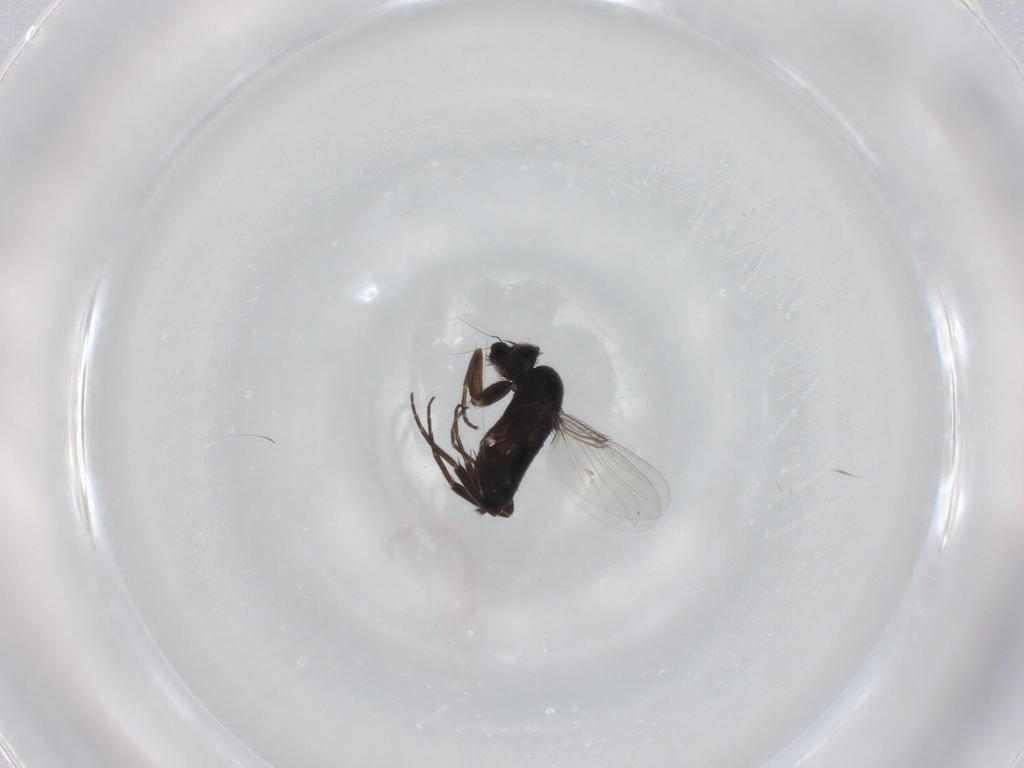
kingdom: Animalia
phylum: Arthropoda
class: Insecta
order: Diptera
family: Phoridae
